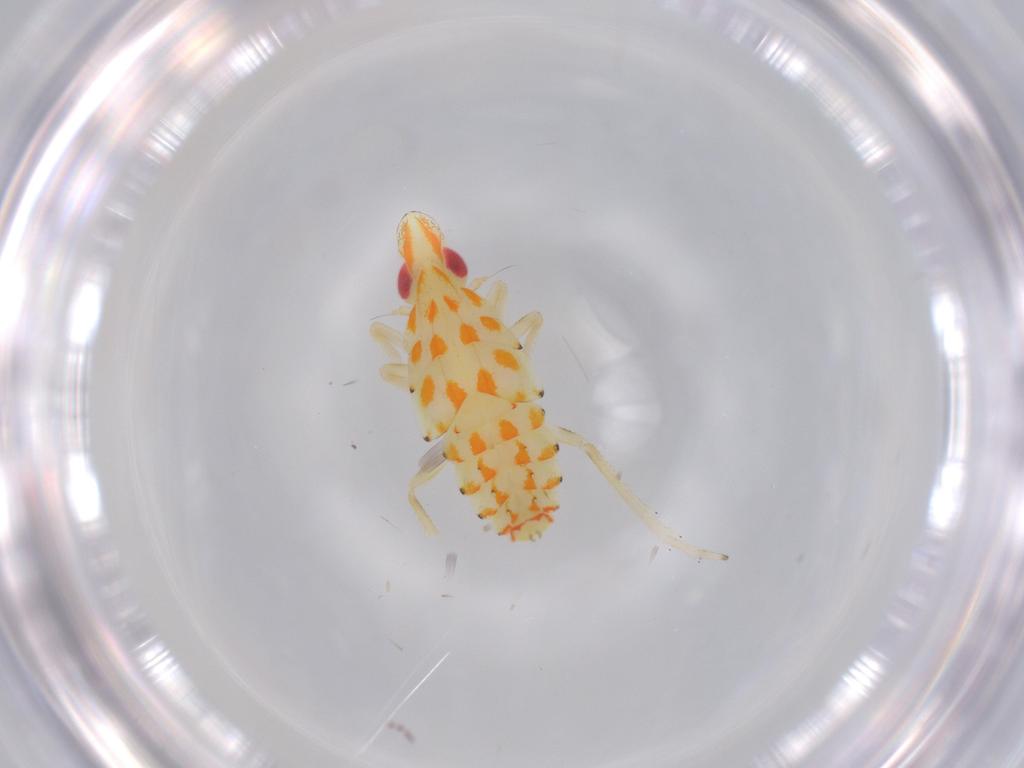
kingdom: Animalia
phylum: Arthropoda
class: Insecta
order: Hemiptera
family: Tropiduchidae
